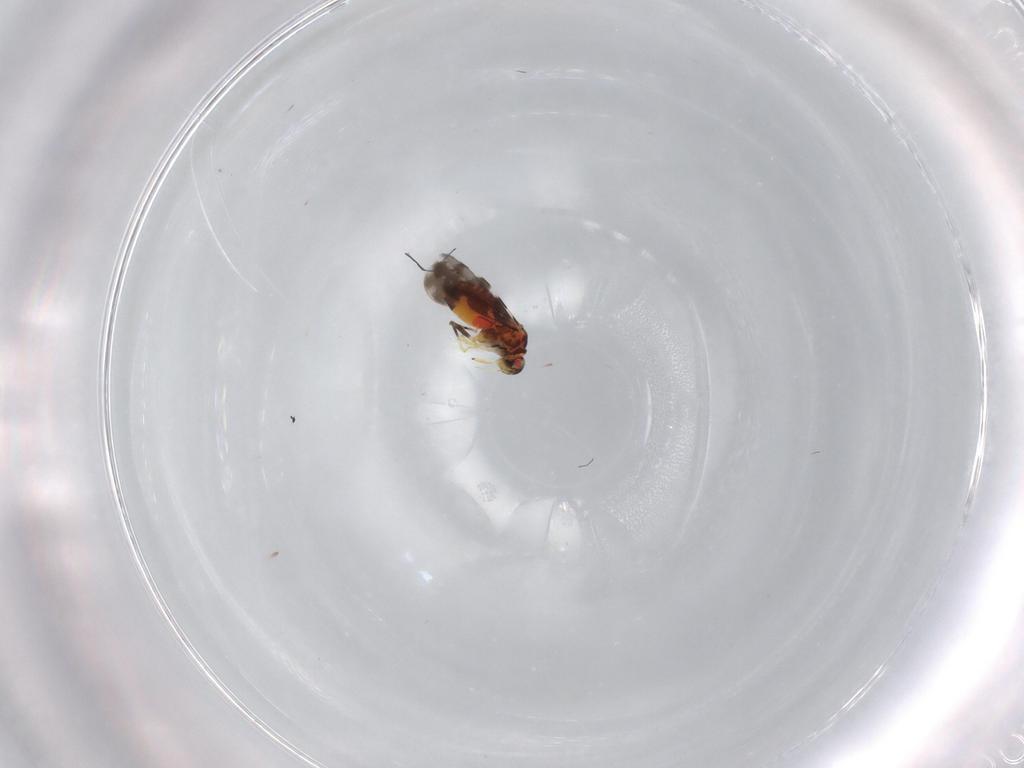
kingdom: Animalia
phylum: Arthropoda
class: Insecta
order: Hemiptera
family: Aleyrodidae
